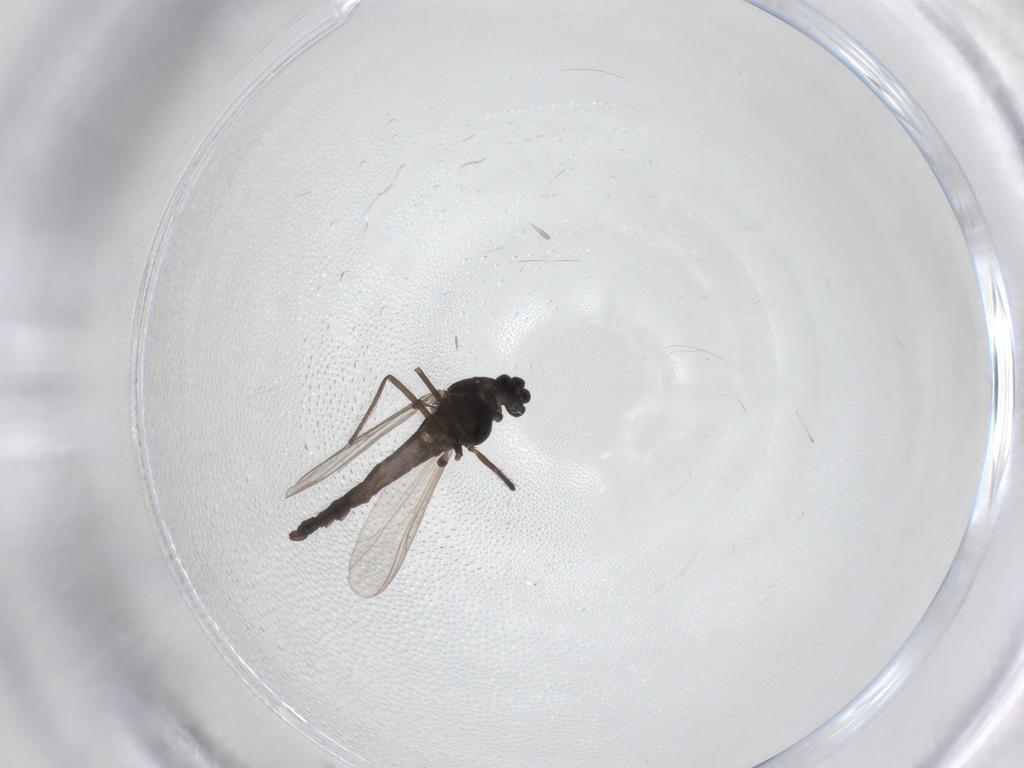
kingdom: Animalia
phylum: Arthropoda
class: Insecta
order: Diptera
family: Chironomidae
